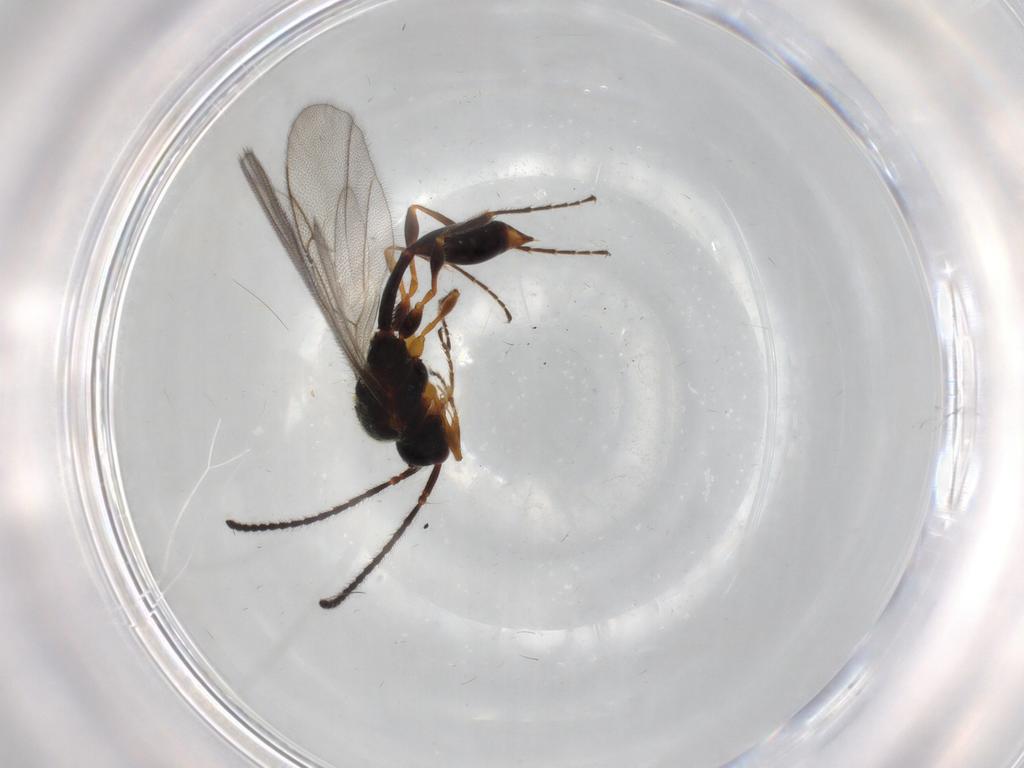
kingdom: Animalia
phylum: Arthropoda
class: Insecta
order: Hymenoptera
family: Diapriidae
